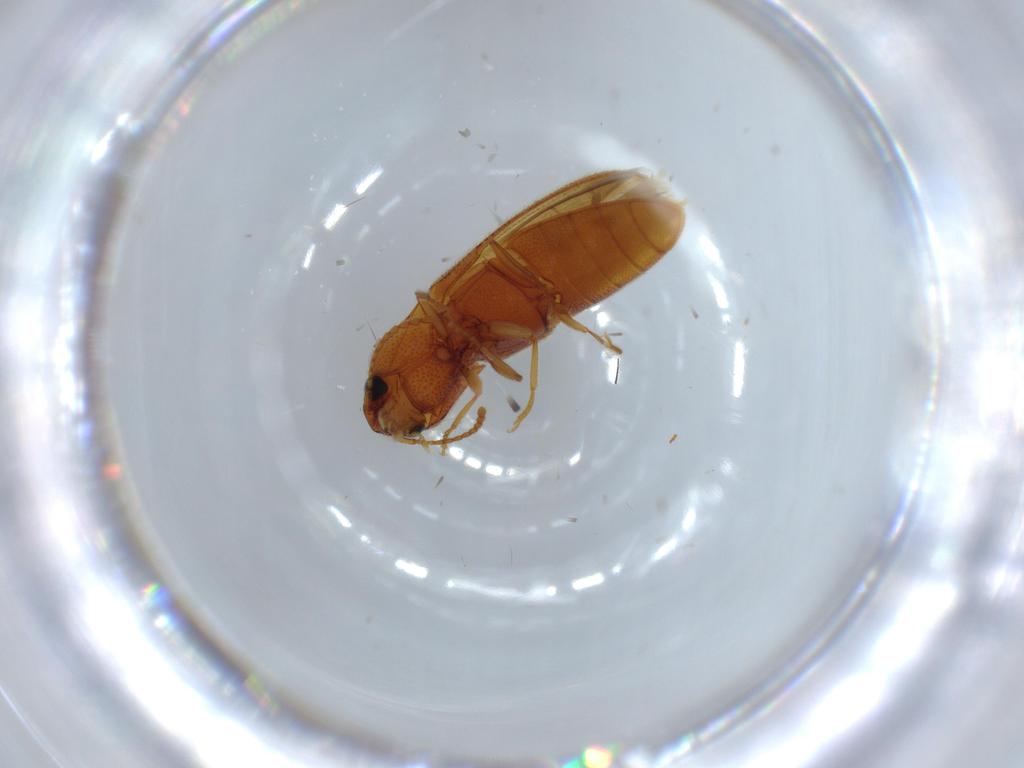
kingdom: Animalia
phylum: Arthropoda
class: Insecta
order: Coleoptera
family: Elateridae
